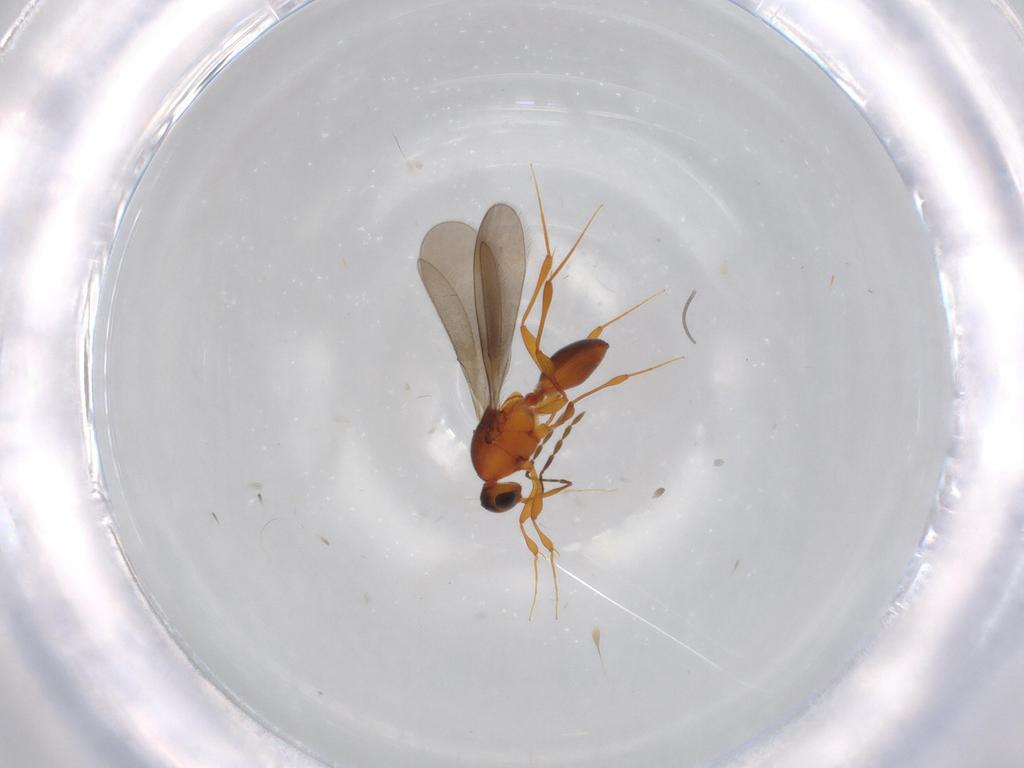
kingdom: Animalia
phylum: Arthropoda
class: Insecta
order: Hymenoptera
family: Platygastridae
